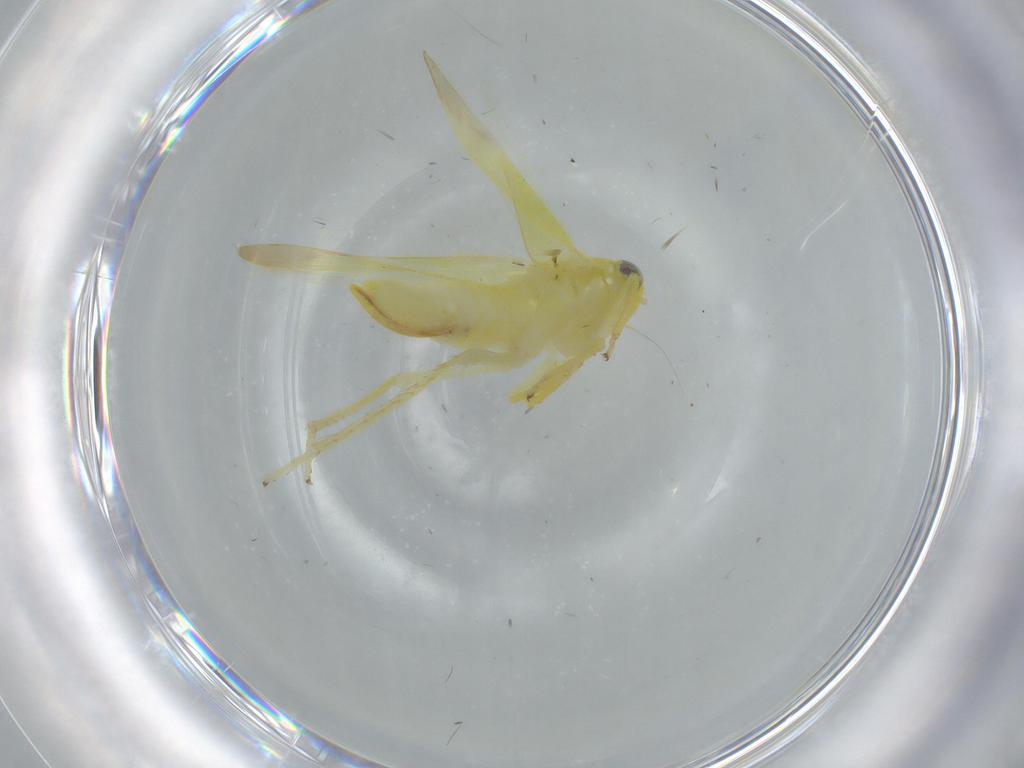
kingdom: Animalia
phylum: Arthropoda
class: Insecta
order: Hemiptera
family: Cicadellidae
